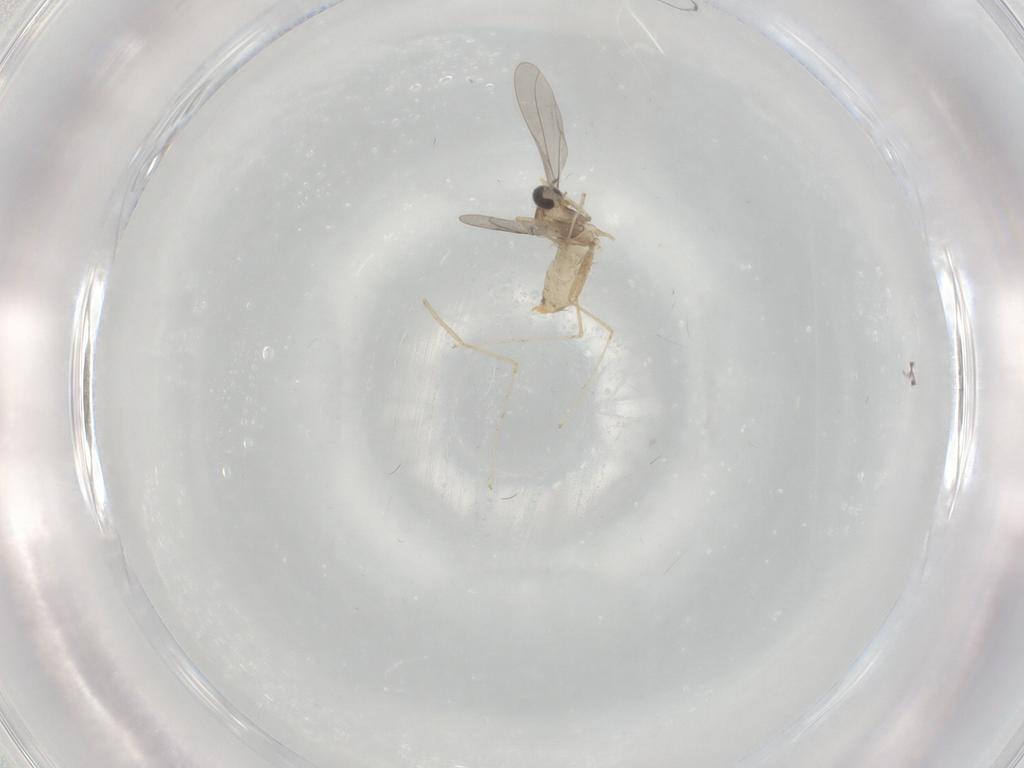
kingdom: Animalia
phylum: Arthropoda
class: Insecta
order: Diptera
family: Cecidomyiidae
